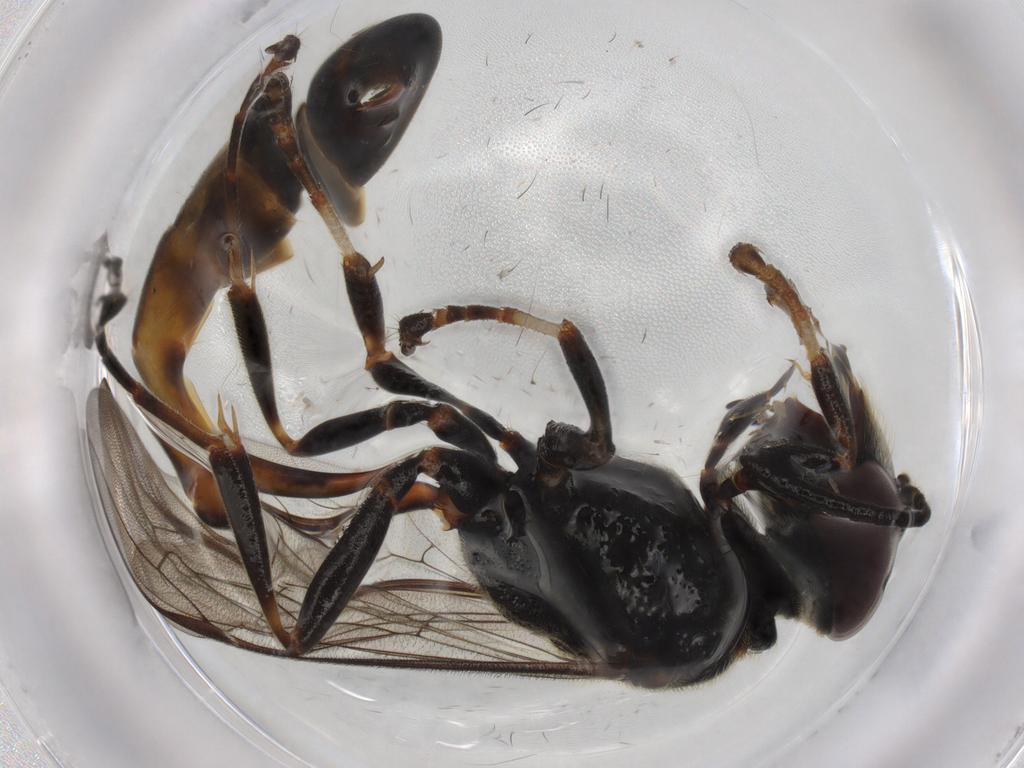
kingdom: Animalia
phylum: Arthropoda
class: Insecta
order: Hymenoptera
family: Crabronidae
